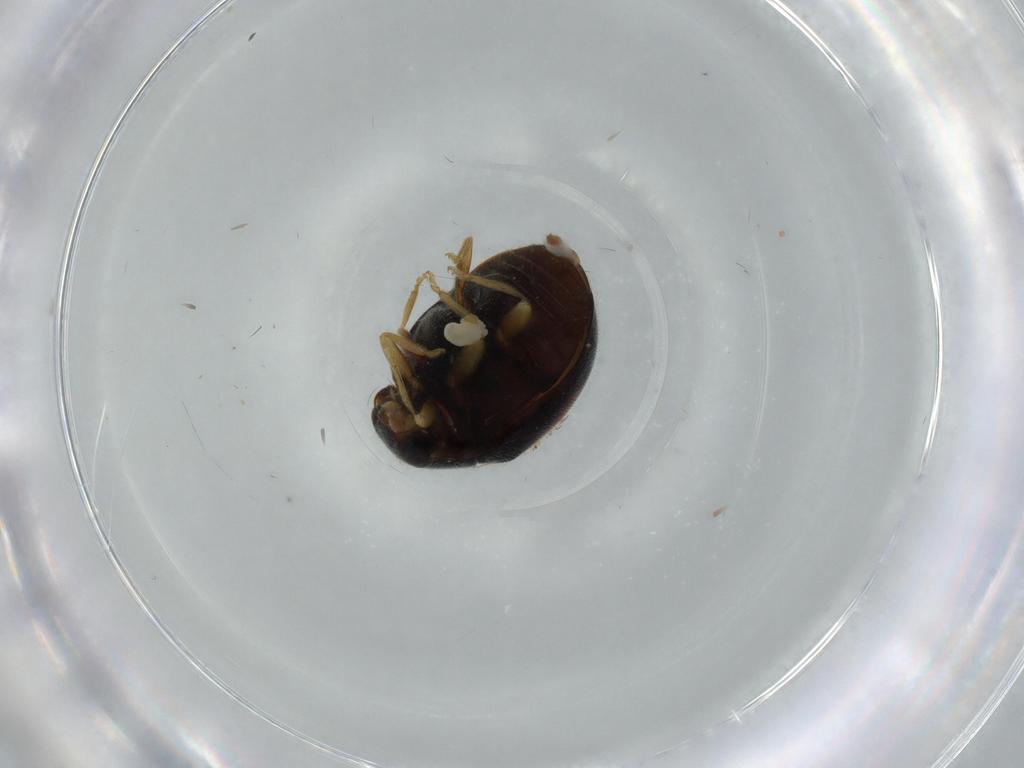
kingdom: Animalia
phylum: Arthropoda
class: Insecta
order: Coleoptera
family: Coccinellidae
